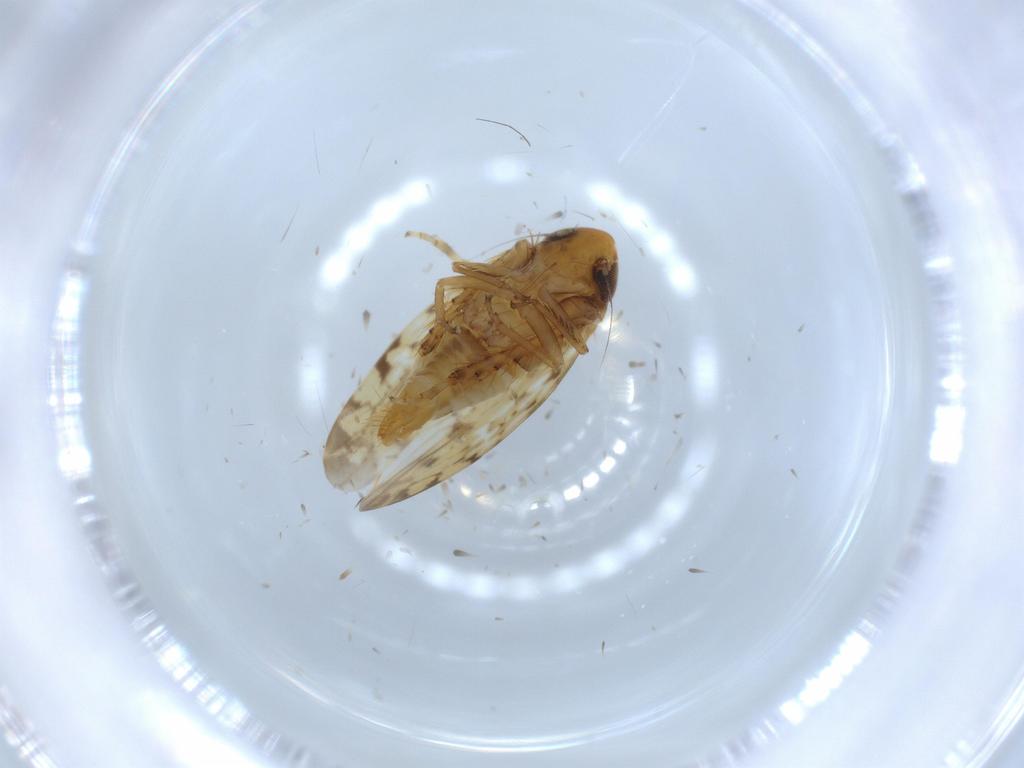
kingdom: Animalia
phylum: Arthropoda
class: Insecta
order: Hemiptera
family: Cicadellidae
